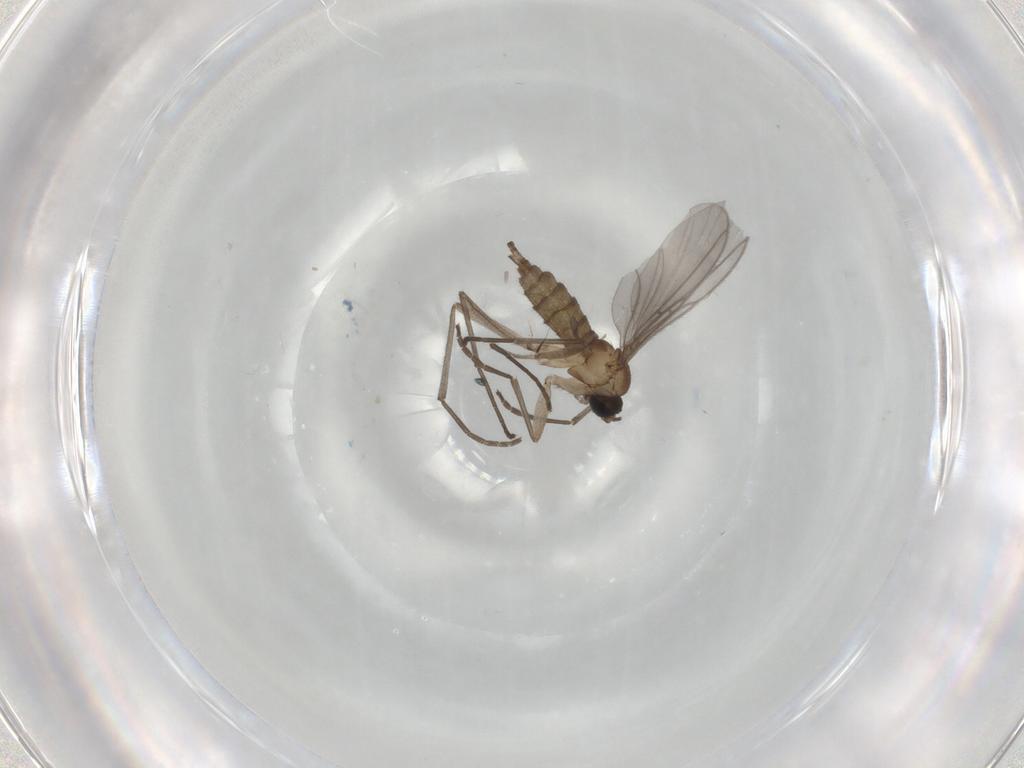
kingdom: Animalia
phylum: Arthropoda
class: Insecta
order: Diptera
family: Sciaridae
